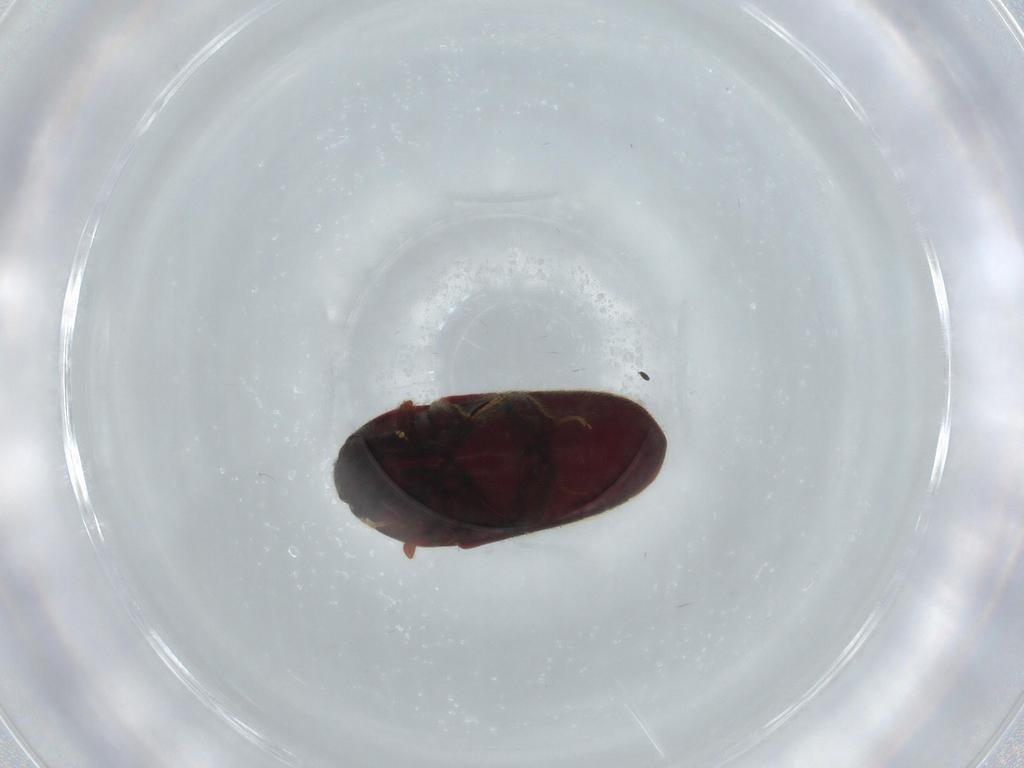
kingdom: Animalia
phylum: Arthropoda
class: Insecta
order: Coleoptera
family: Throscidae
